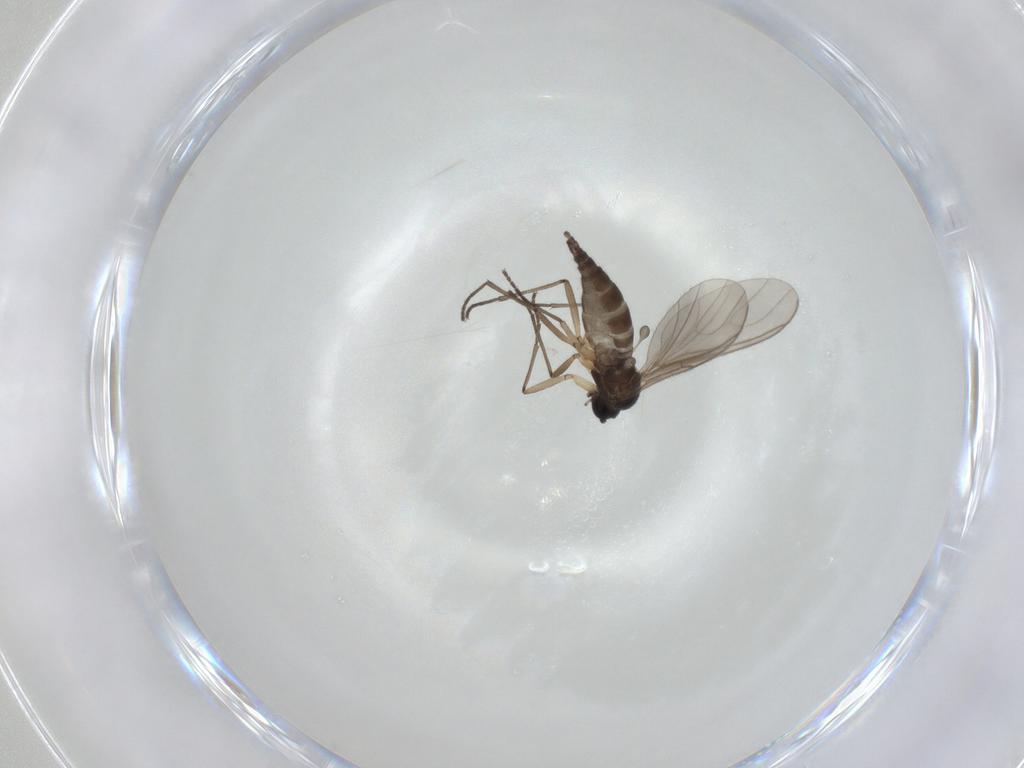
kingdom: Animalia
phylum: Arthropoda
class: Insecta
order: Diptera
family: Sciaridae
